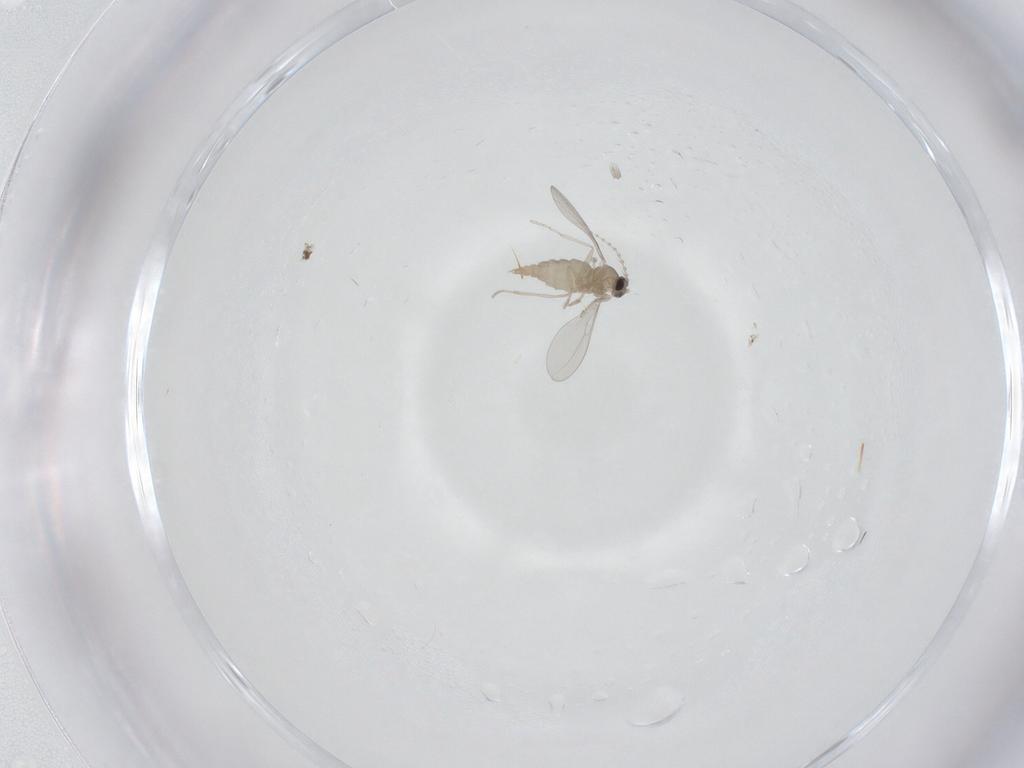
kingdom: Animalia
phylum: Arthropoda
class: Insecta
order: Diptera
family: Cecidomyiidae
